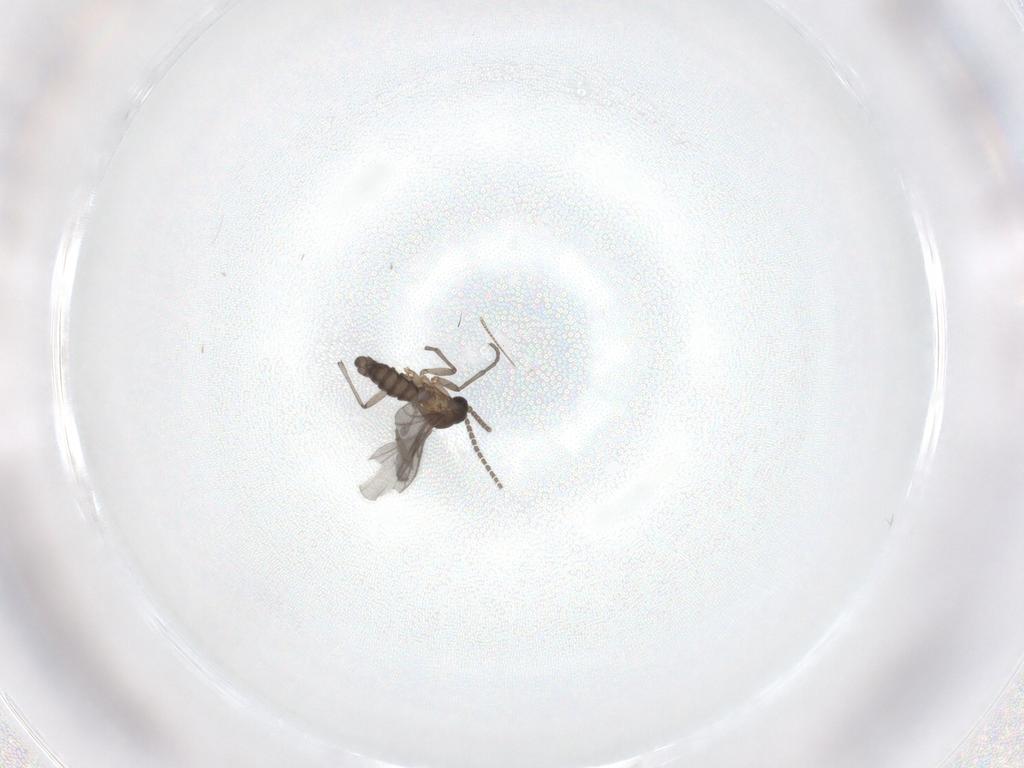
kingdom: Animalia
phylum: Arthropoda
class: Insecta
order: Diptera
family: Sciaridae
